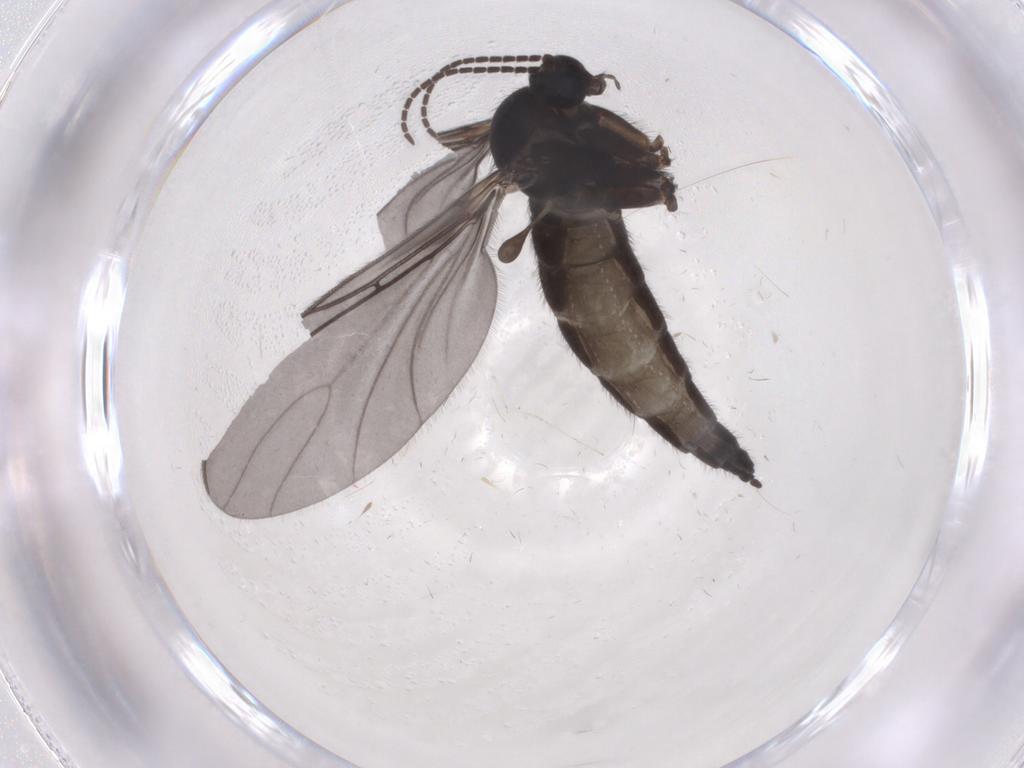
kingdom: Animalia
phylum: Arthropoda
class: Insecta
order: Diptera
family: Sciaridae
